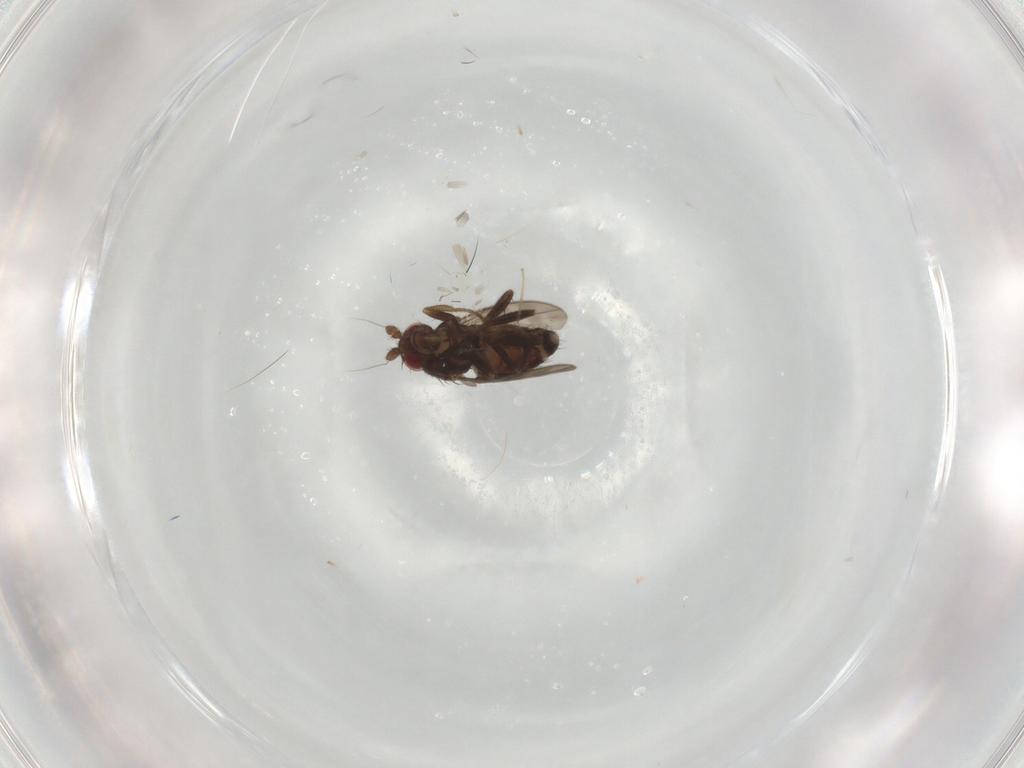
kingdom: Animalia
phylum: Arthropoda
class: Insecta
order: Diptera
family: Sphaeroceridae
